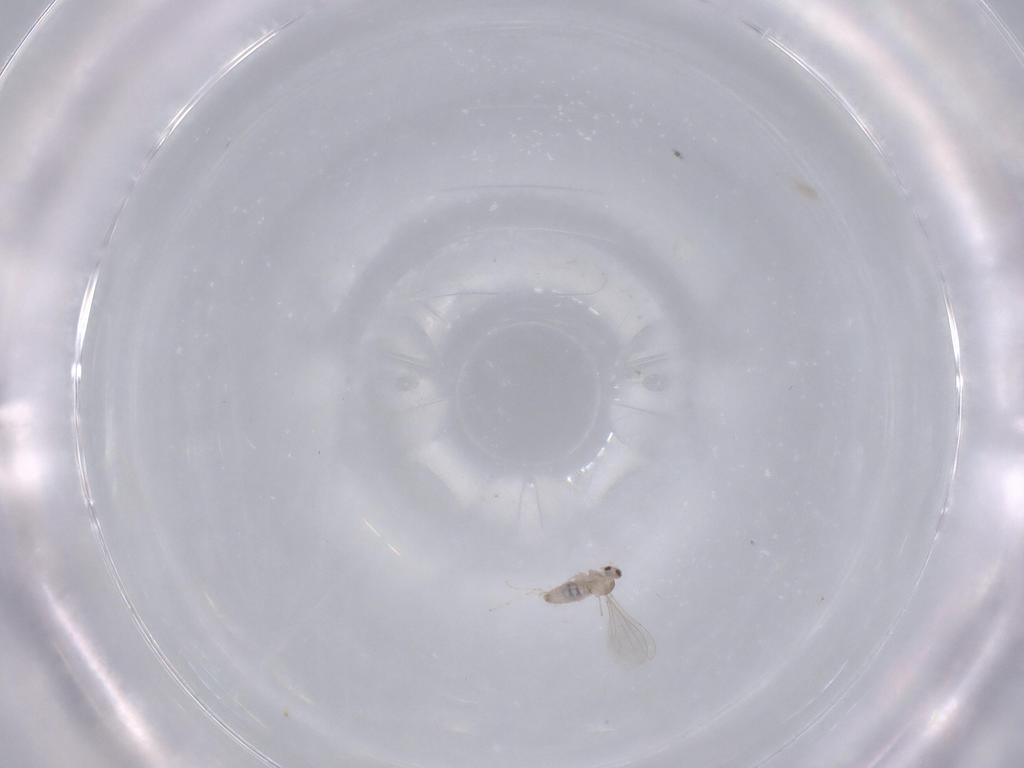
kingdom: Animalia
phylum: Arthropoda
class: Insecta
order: Diptera
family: Cecidomyiidae
